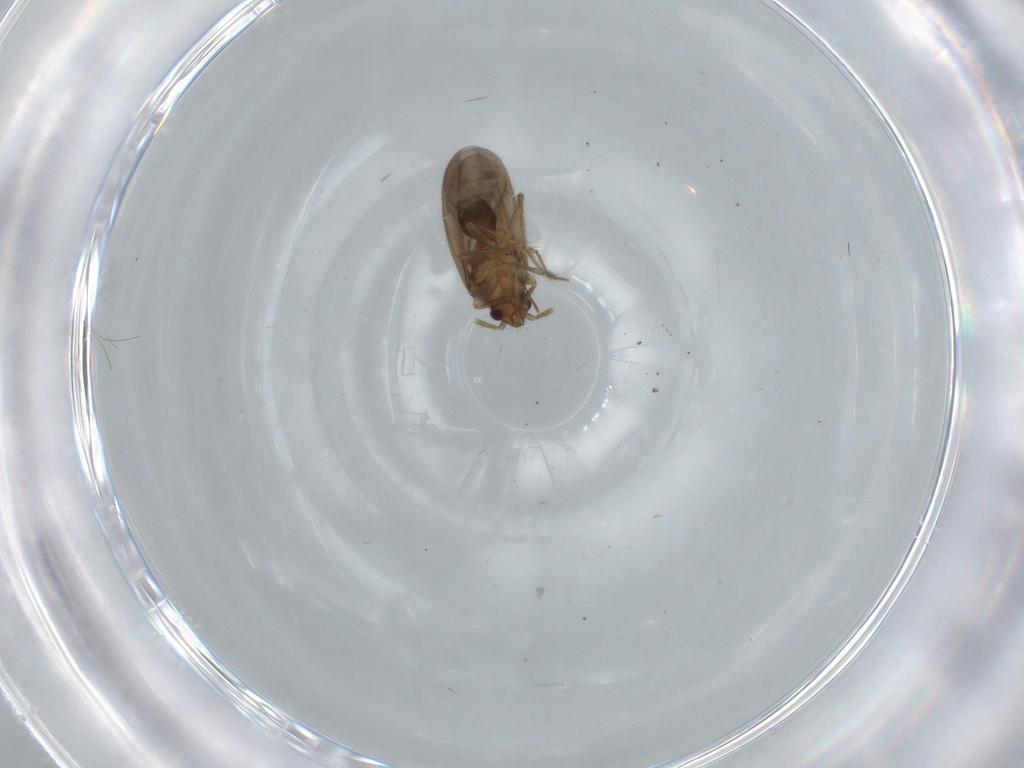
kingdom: Animalia
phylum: Arthropoda
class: Insecta
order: Hemiptera
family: Ceratocombidae
